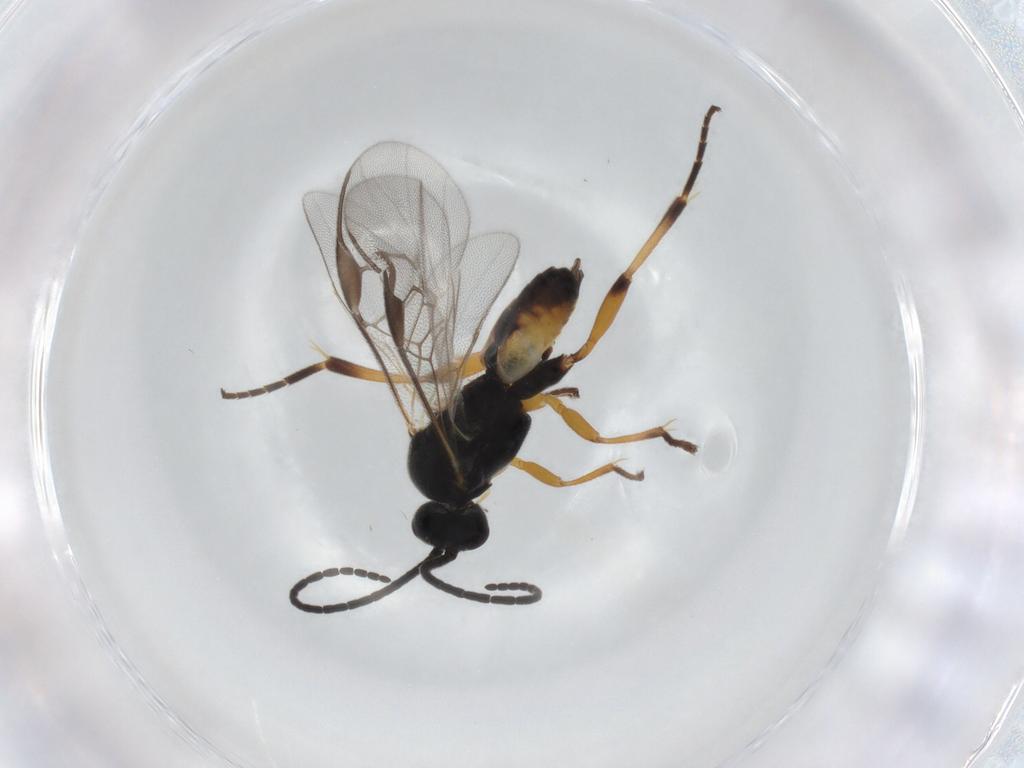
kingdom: Animalia
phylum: Arthropoda
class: Insecta
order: Hymenoptera
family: Braconidae
